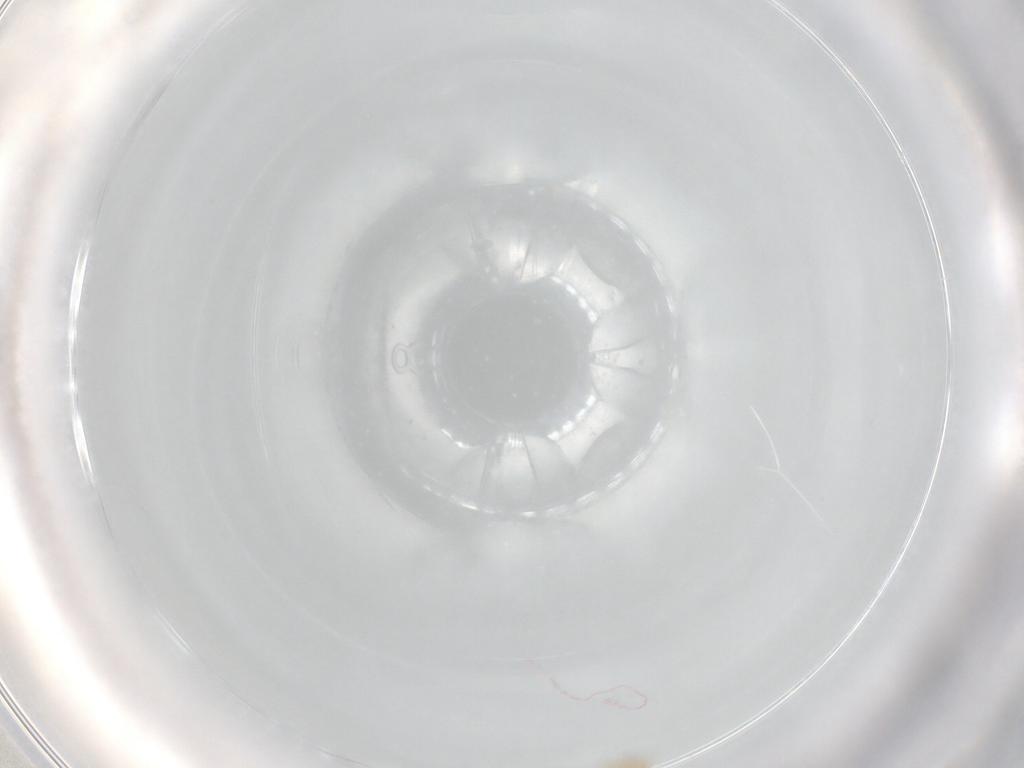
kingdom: Animalia
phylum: Arthropoda
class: Arachnida
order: Trombidiformes
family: Hygrobatidae
